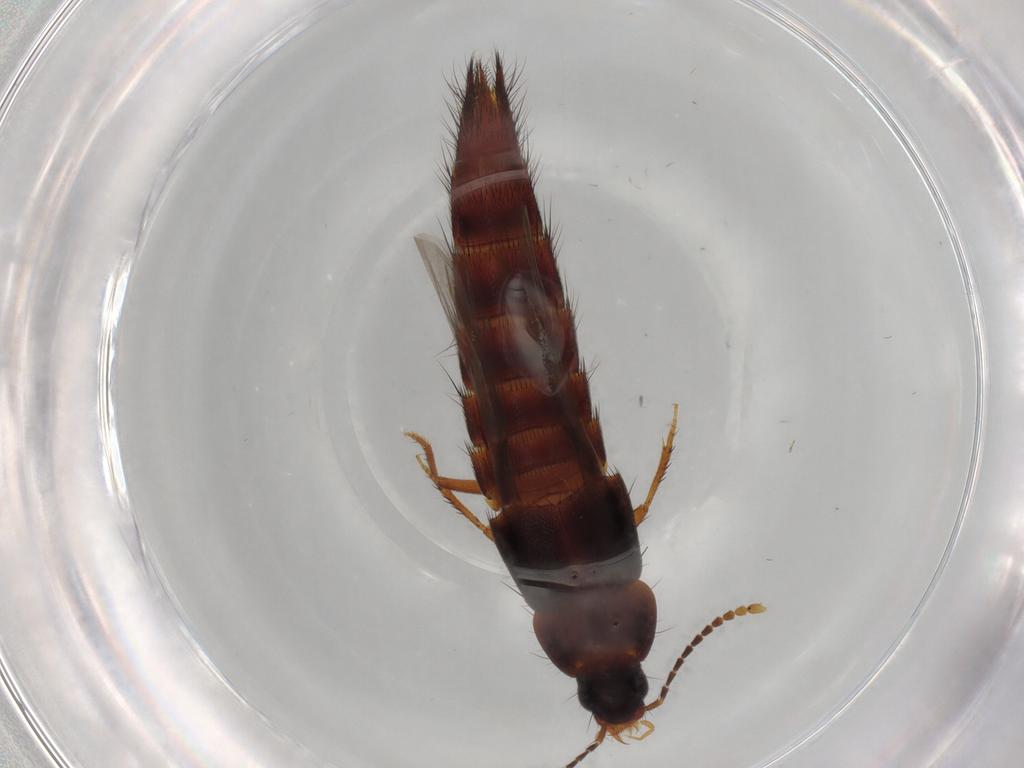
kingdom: Animalia
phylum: Arthropoda
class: Insecta
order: Coleoptera
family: Staphylinidae
